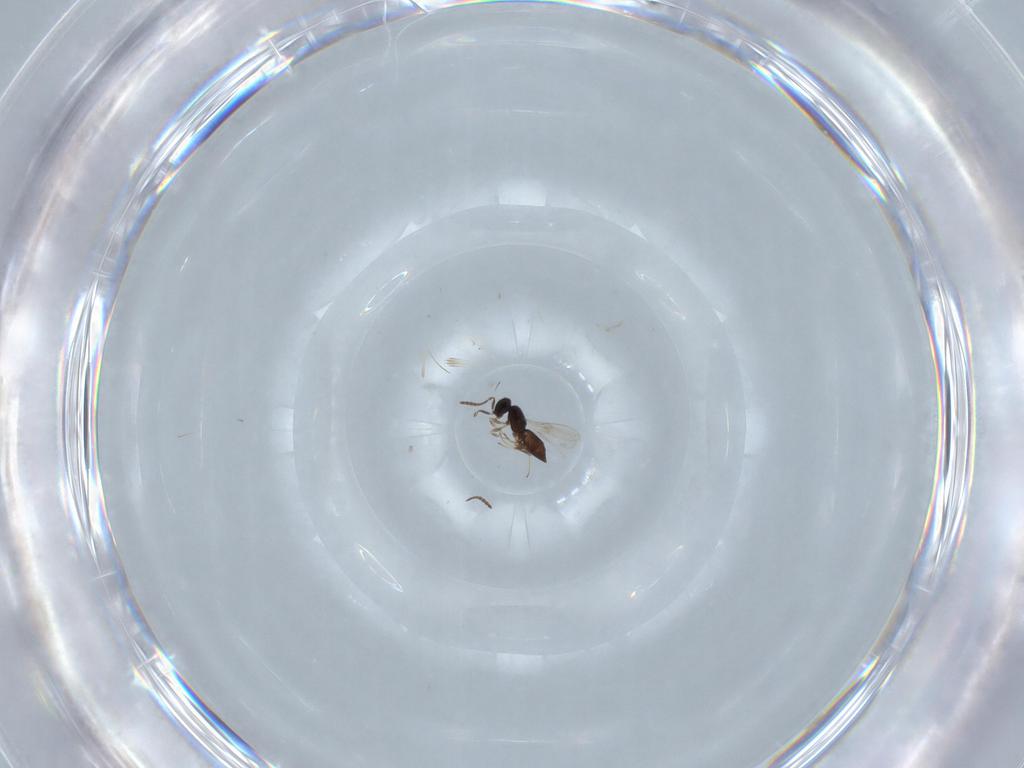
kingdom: Animalia
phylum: Arthropoda
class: Insecta
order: Hymenoptera
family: Scelionidae
